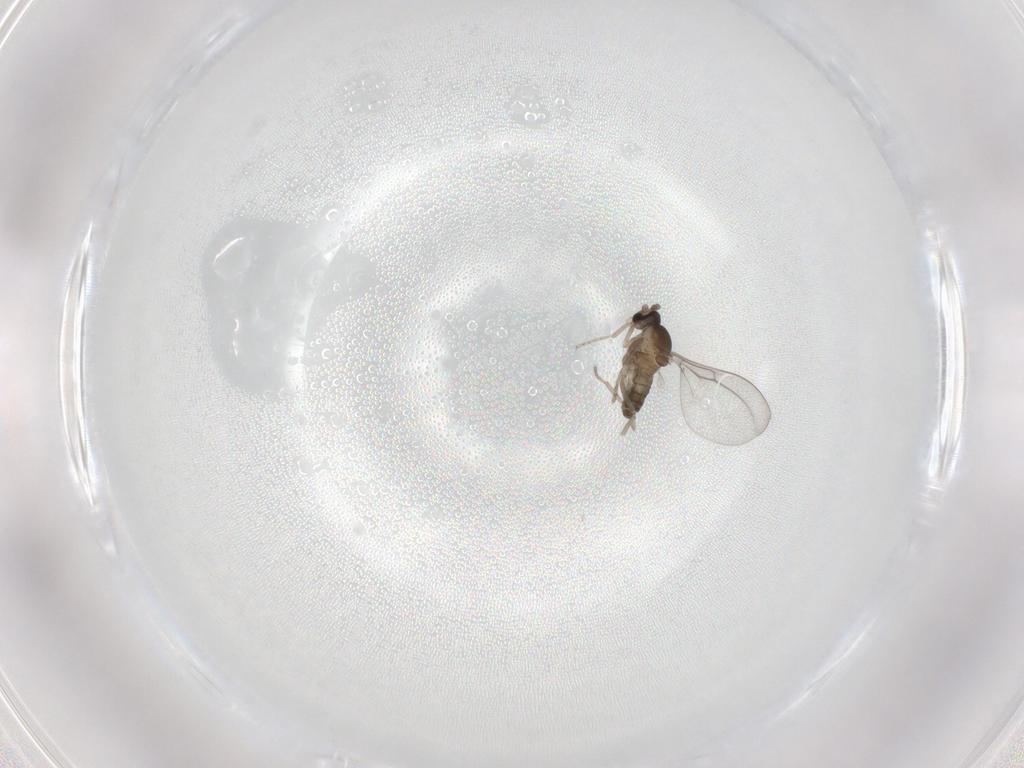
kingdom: Animalia
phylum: Arthropoda
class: Insecta
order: Diptera
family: Cecidomyiidae
